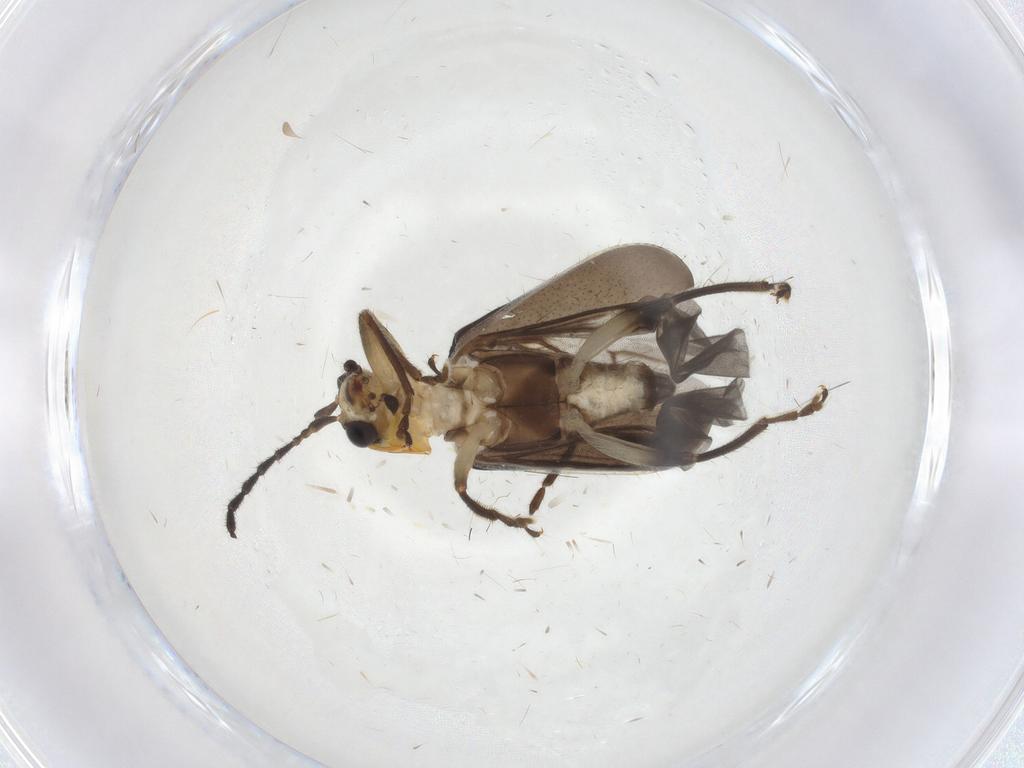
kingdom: Animalia
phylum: Arthropoda
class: Insecta
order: Coleoptera
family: Chrysomelidae
